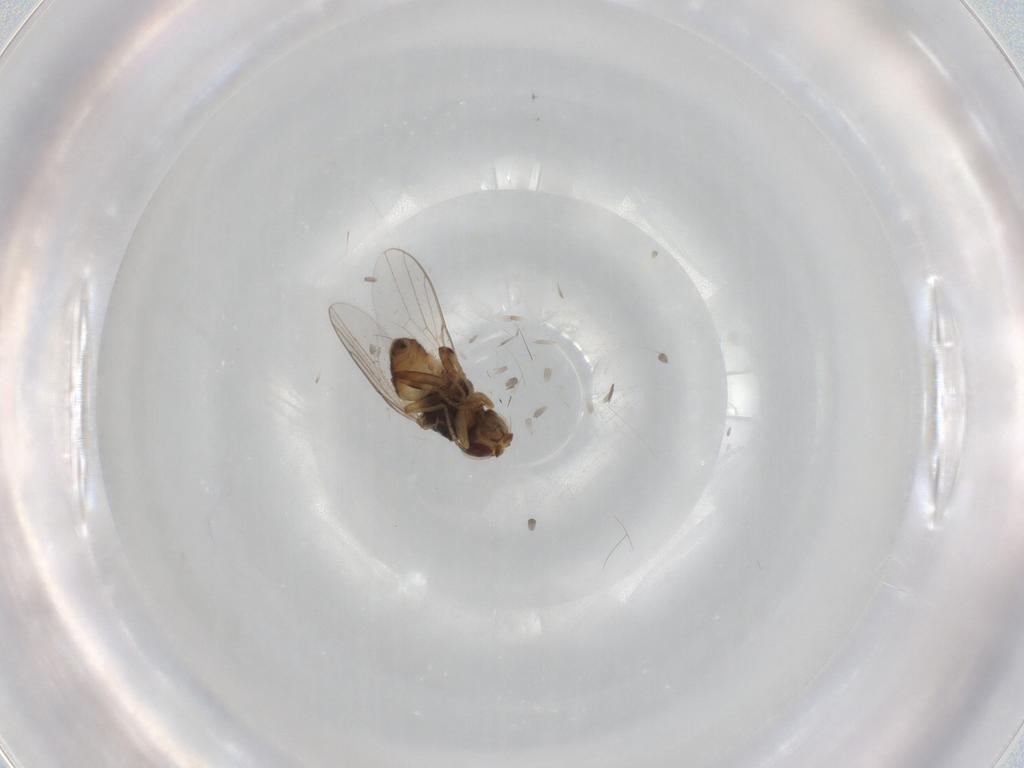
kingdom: Animalia
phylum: Arthropoda
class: Insecta
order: Diptera
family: Chloropidae
